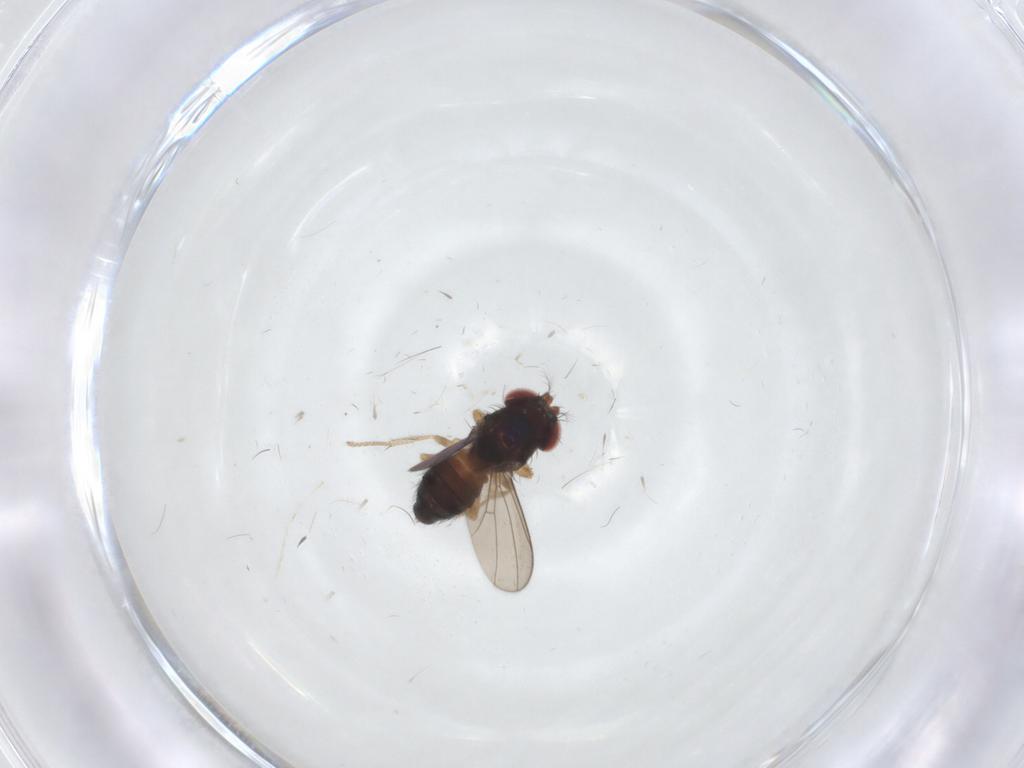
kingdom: Animalia
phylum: Arthropoda
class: Insecta
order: Diptera
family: Drosophilidae
